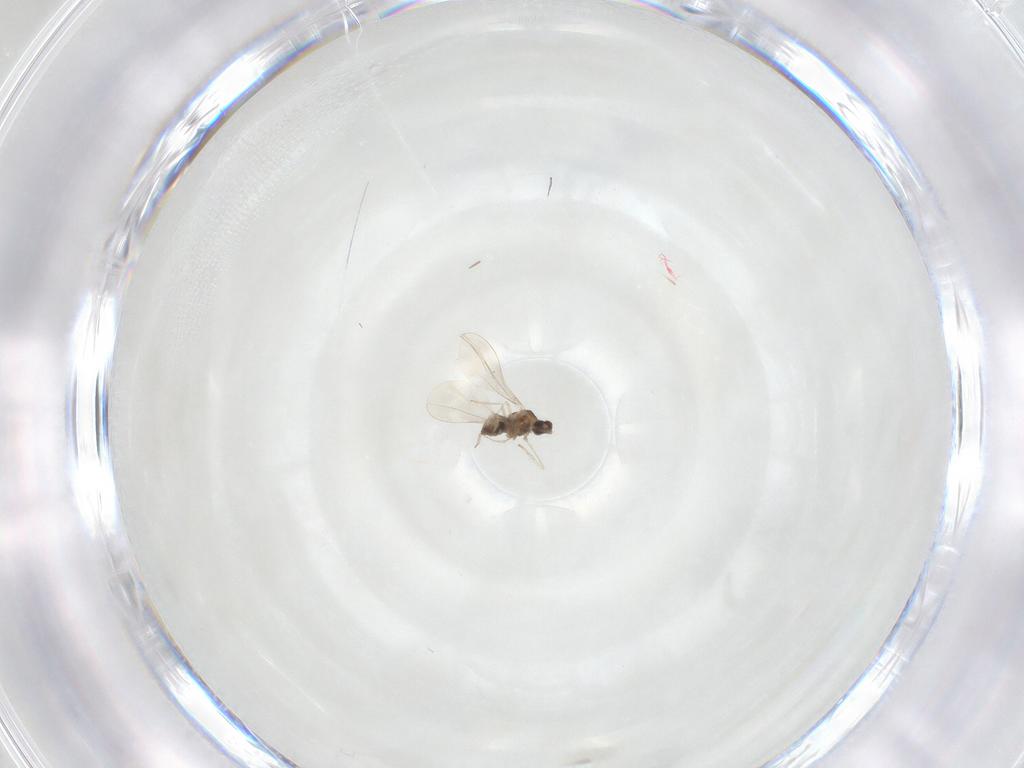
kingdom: Animalia
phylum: Arthropoda
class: Insecta
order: Diptera
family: Cecidomyiidae
